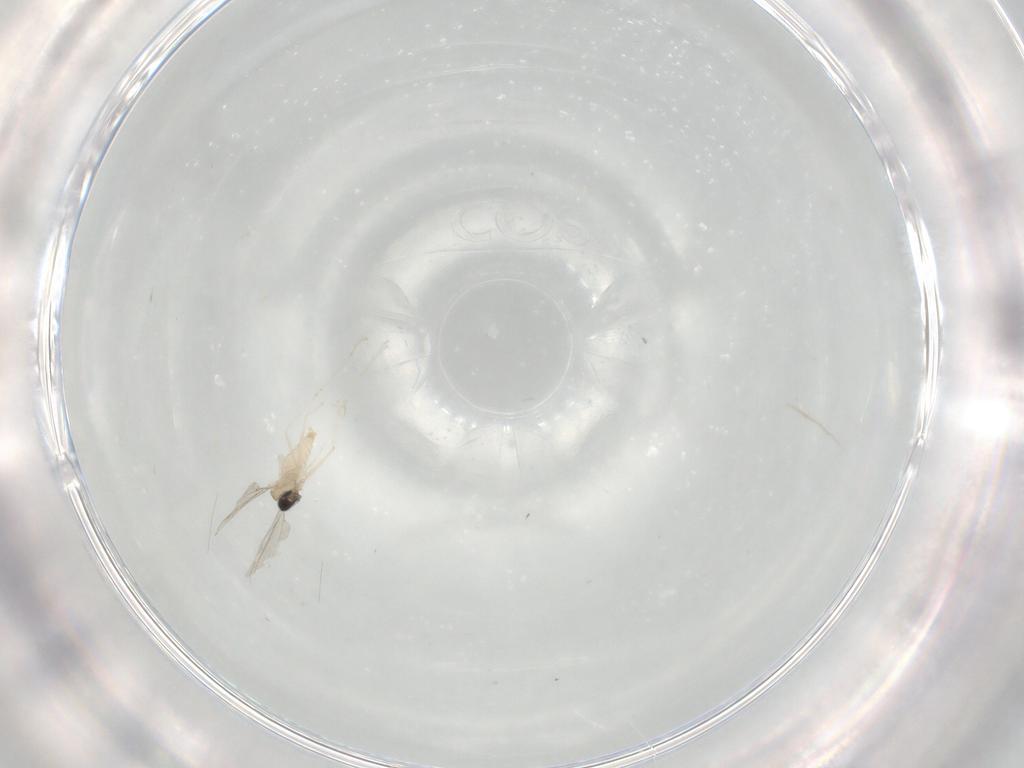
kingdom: Animalia
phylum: Arthropoda
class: Insecta
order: Diptera
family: Cecidomyiidae
